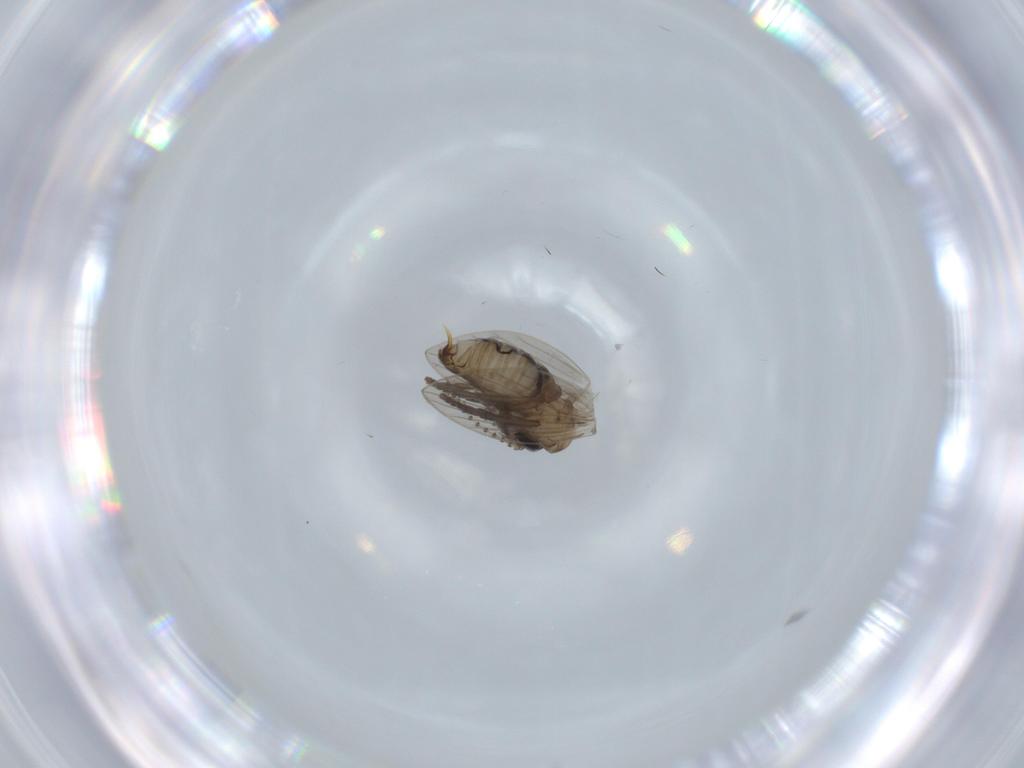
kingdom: Animalia
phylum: Arthropoda
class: Insecta
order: Diptera
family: Psychodidae
